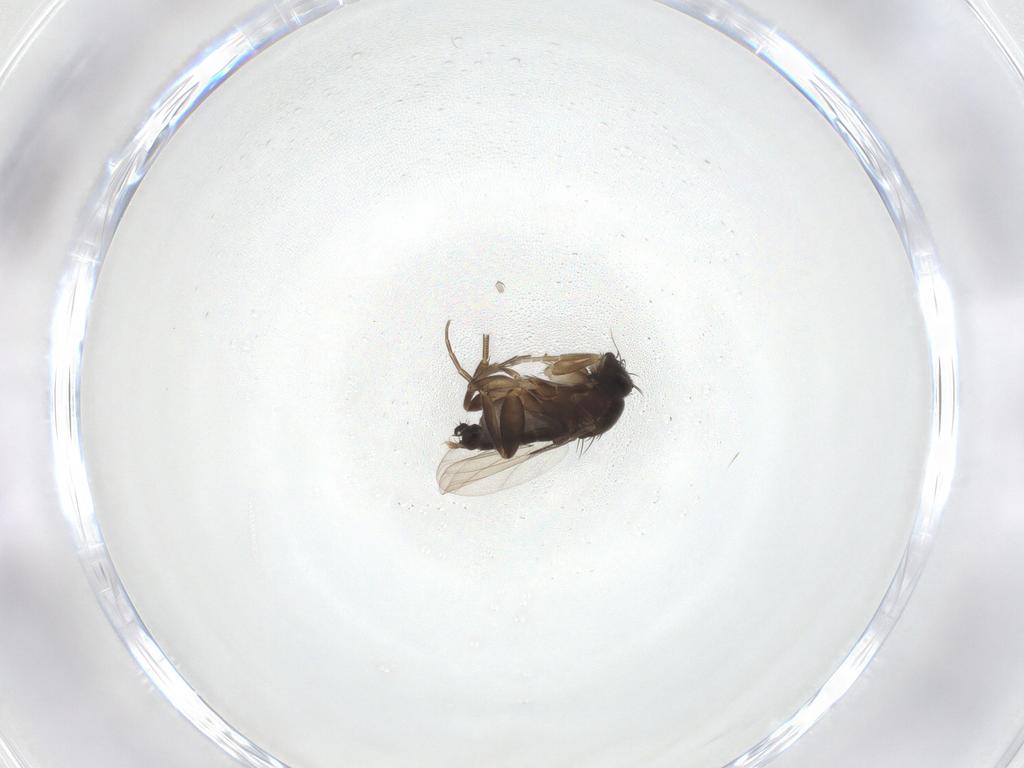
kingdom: Animalia
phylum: Arthropoda
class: Insecta
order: Diptera
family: Phoridae
